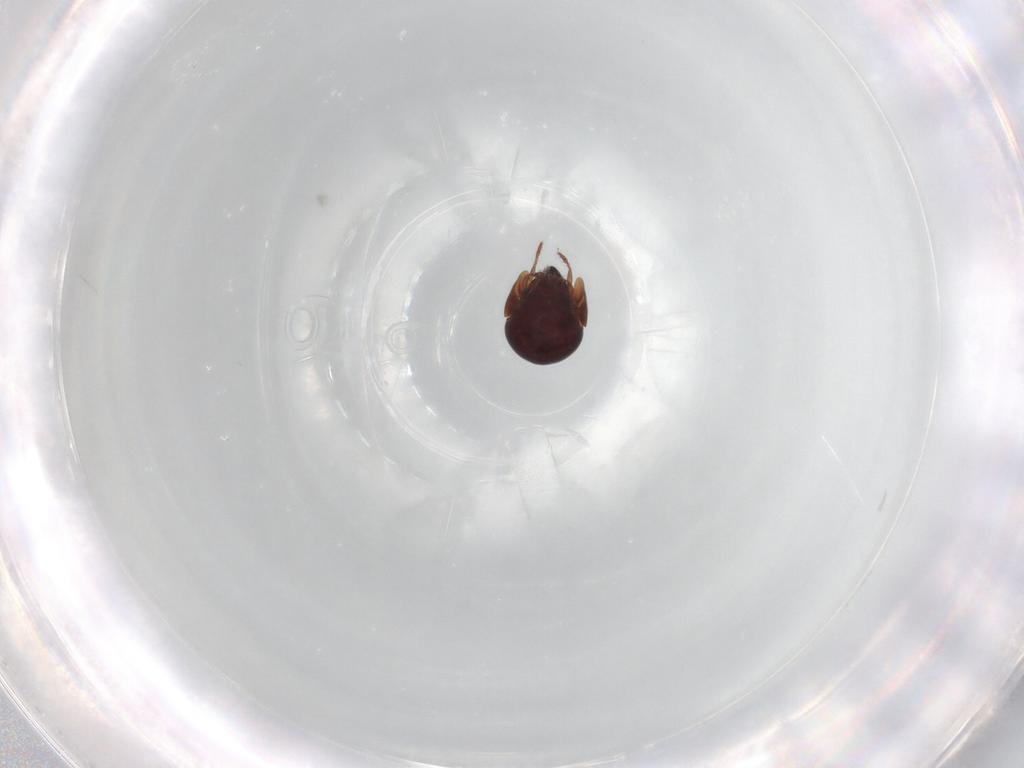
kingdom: Animalia
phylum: Arthropoda
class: Arachnida
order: Sarcoptiformes
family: Galumnidae
